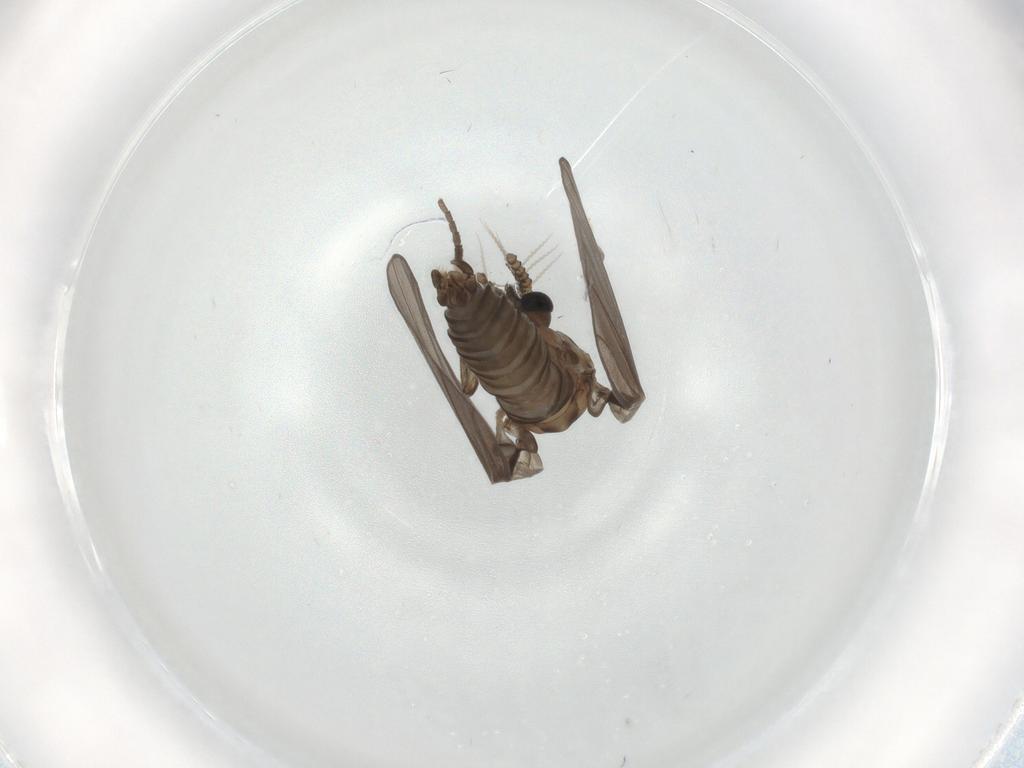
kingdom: Animalia
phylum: Arthropoda
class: Insecta
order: Diptera
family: Sarcophagidae
